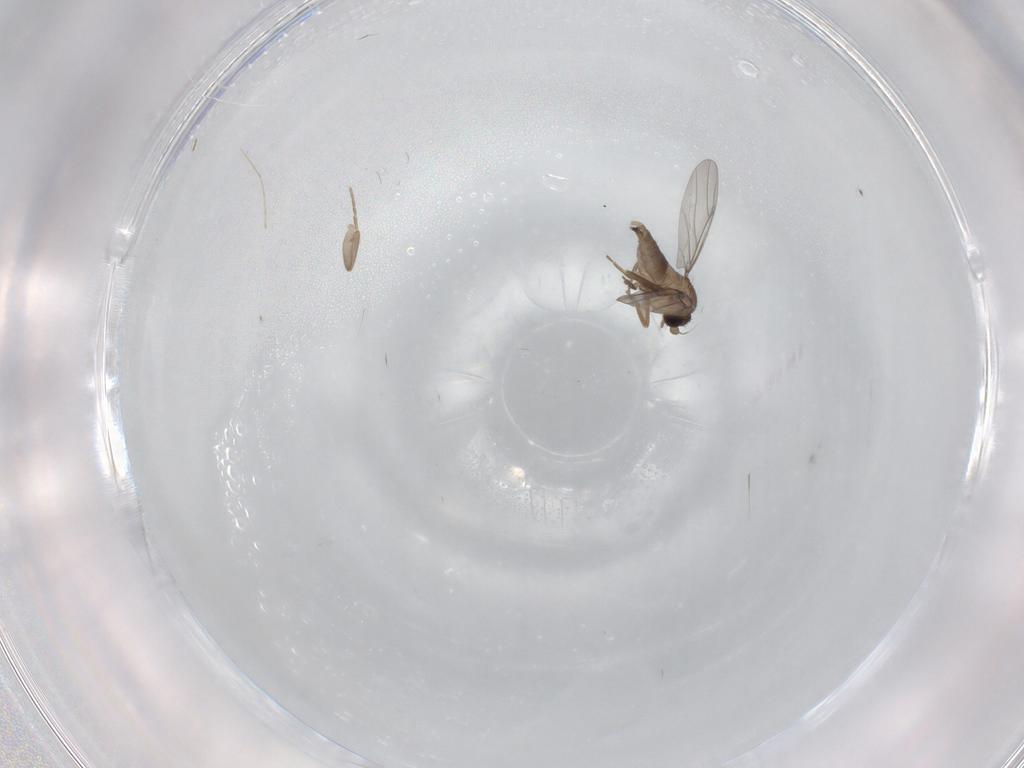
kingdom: Animalia
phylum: Arthropoda
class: Insecta
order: Diptera
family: Cecidomyiidae
